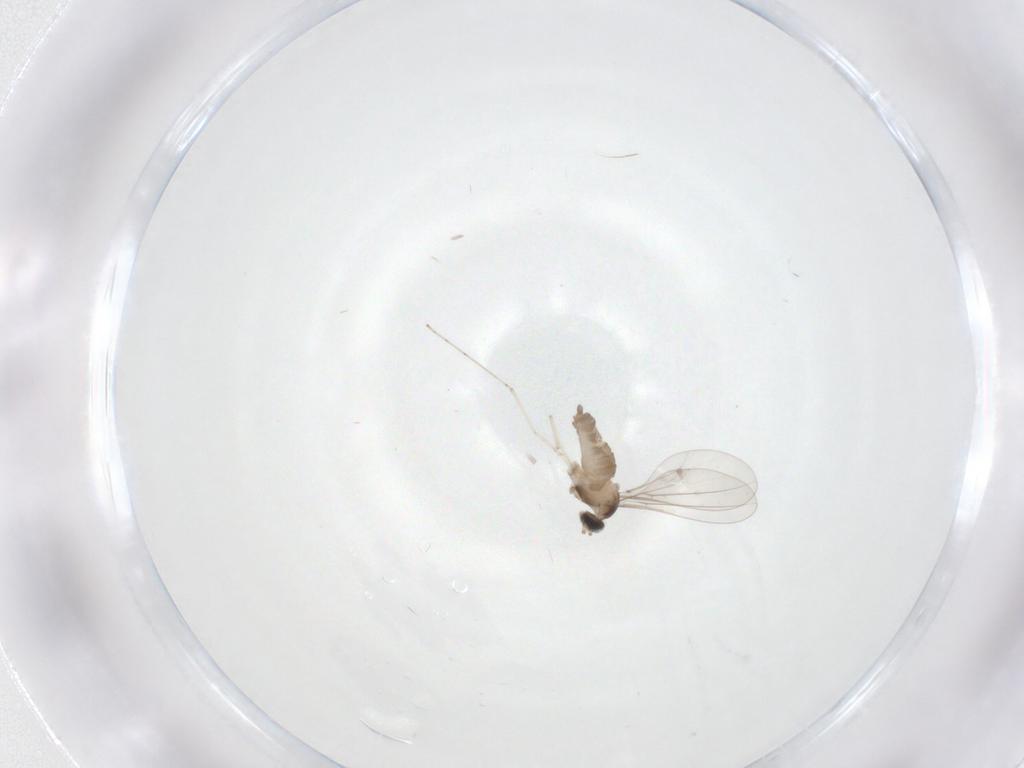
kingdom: Animalia
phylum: Arthropoda
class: Insecta
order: Diptera
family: Cecidomyiidae
